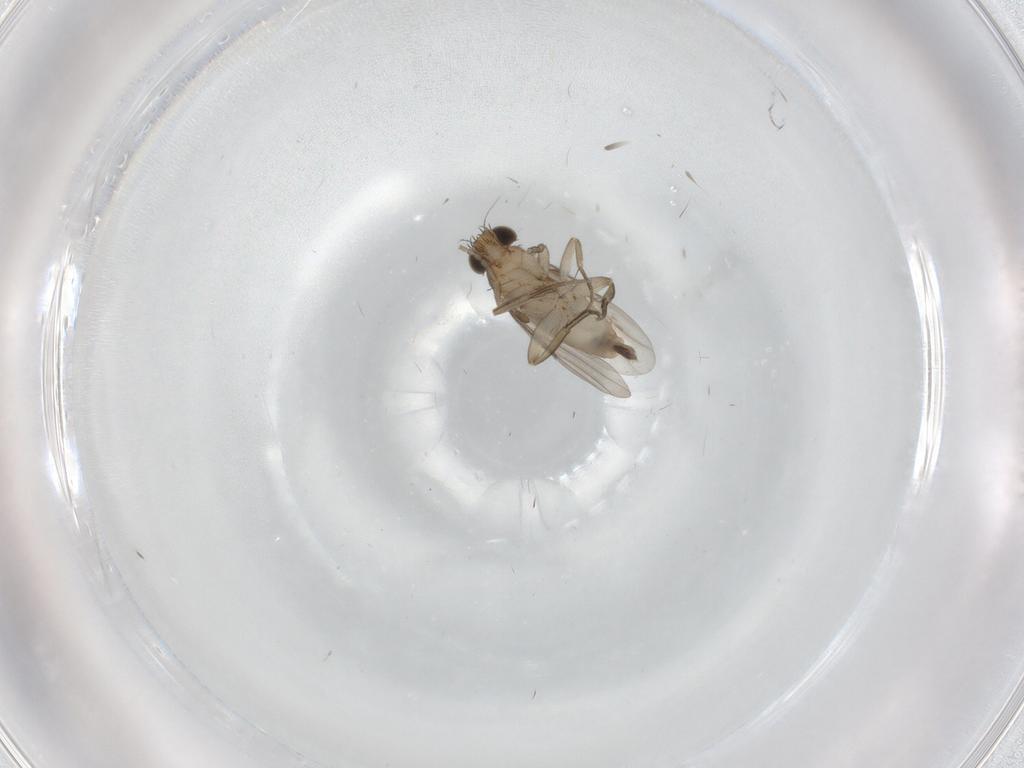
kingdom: Animalia
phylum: Arthropoda
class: Insecta
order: Diptera
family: Phoridae
